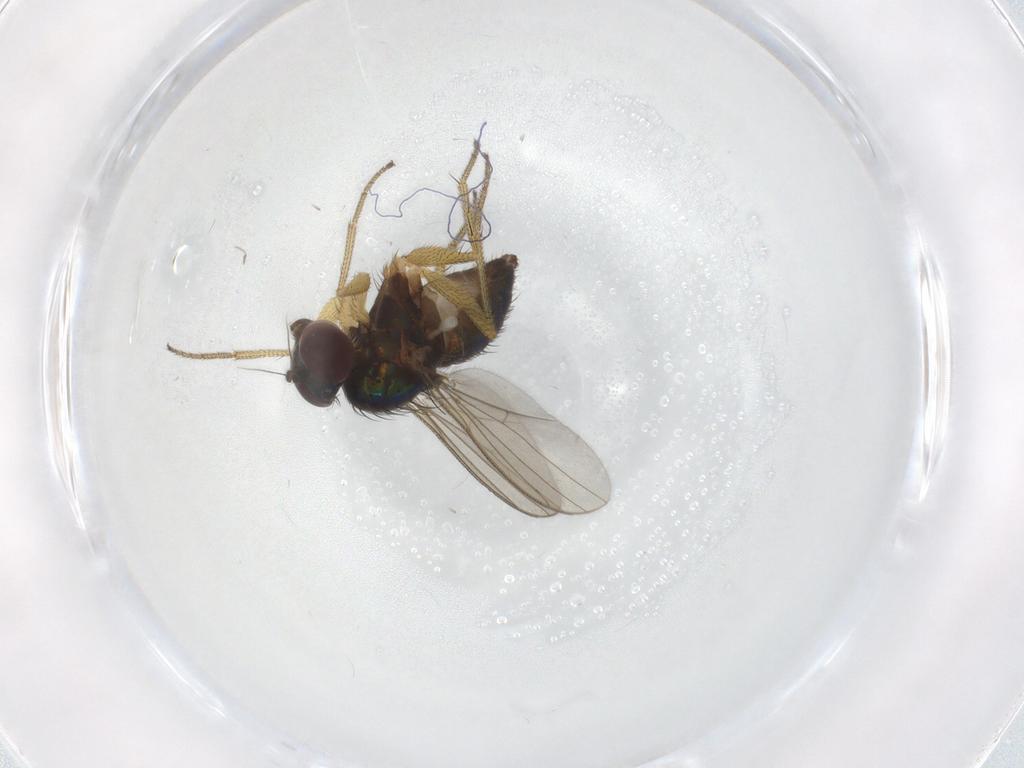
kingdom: Animalia
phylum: Arthropoda
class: Insecta
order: Diptera
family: Dolichopodidae
